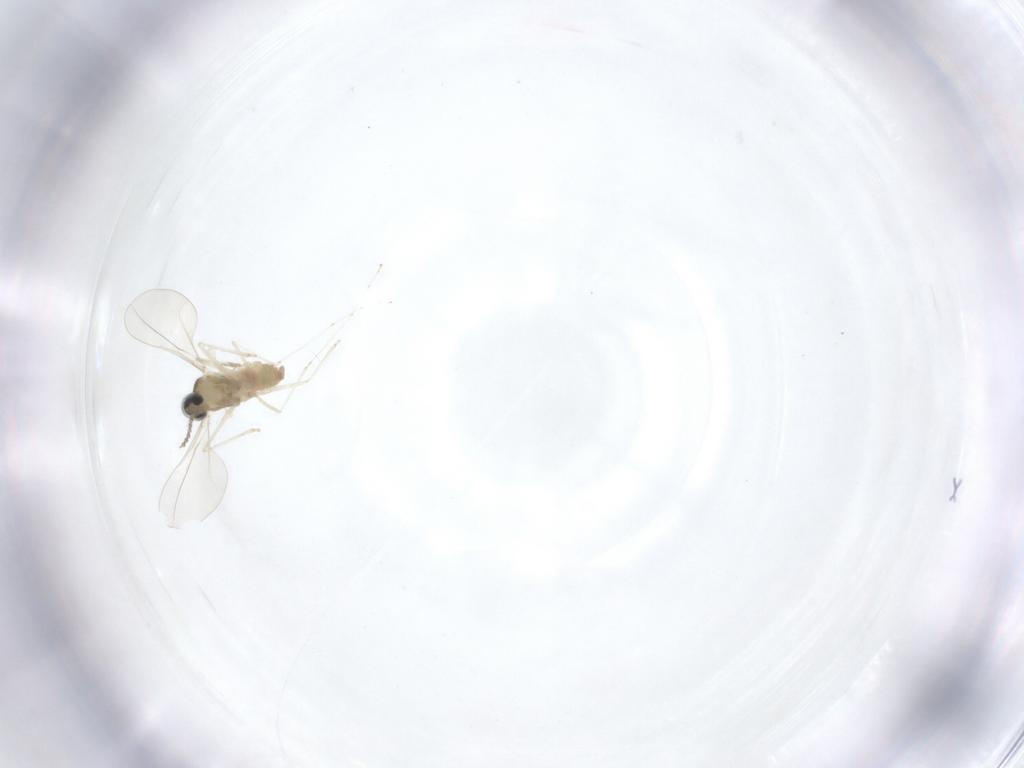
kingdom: Animalia
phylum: Arthropoda
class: Insecta
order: Diptera
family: Cecidomyiidae
